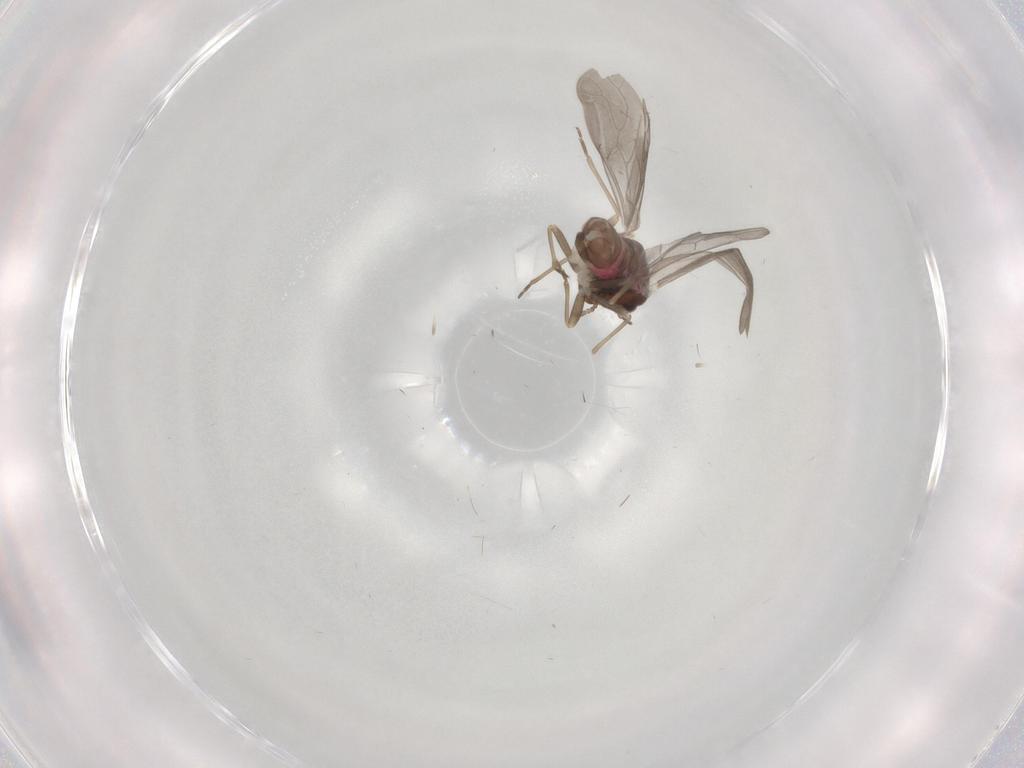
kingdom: Animalia
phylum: Arthropoda
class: Insecta
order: Psocodea
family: Archipsocidae
